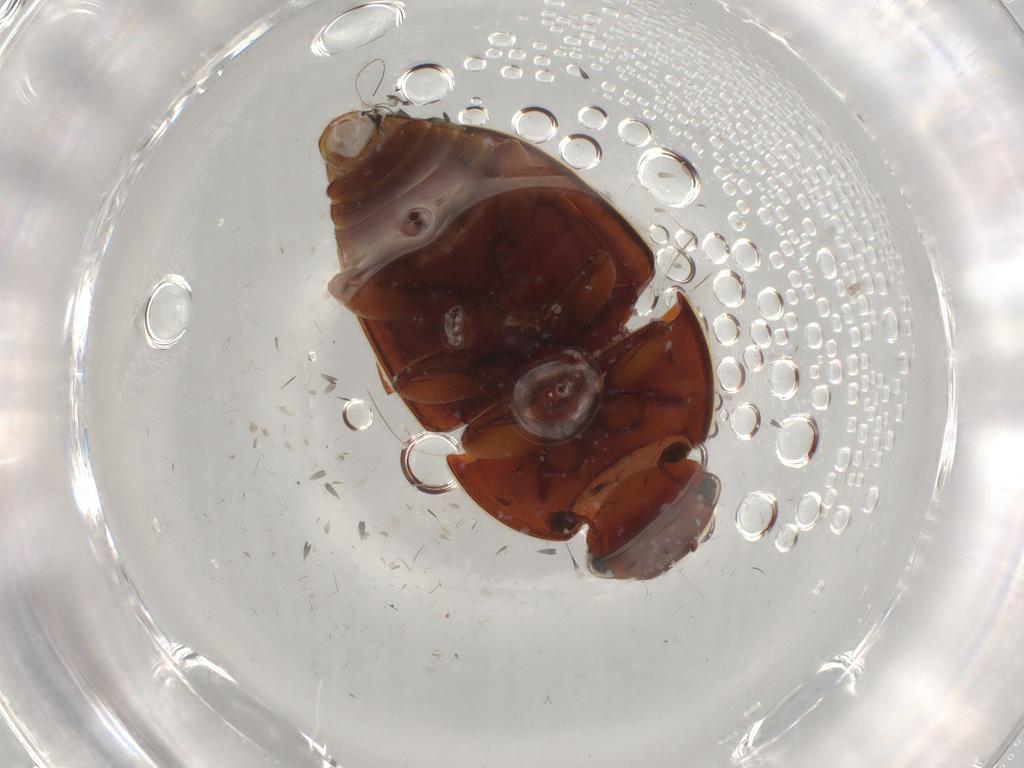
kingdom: Animalia
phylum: Arthropoda
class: Insecta
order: Coleoptera
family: Nitidulidae
